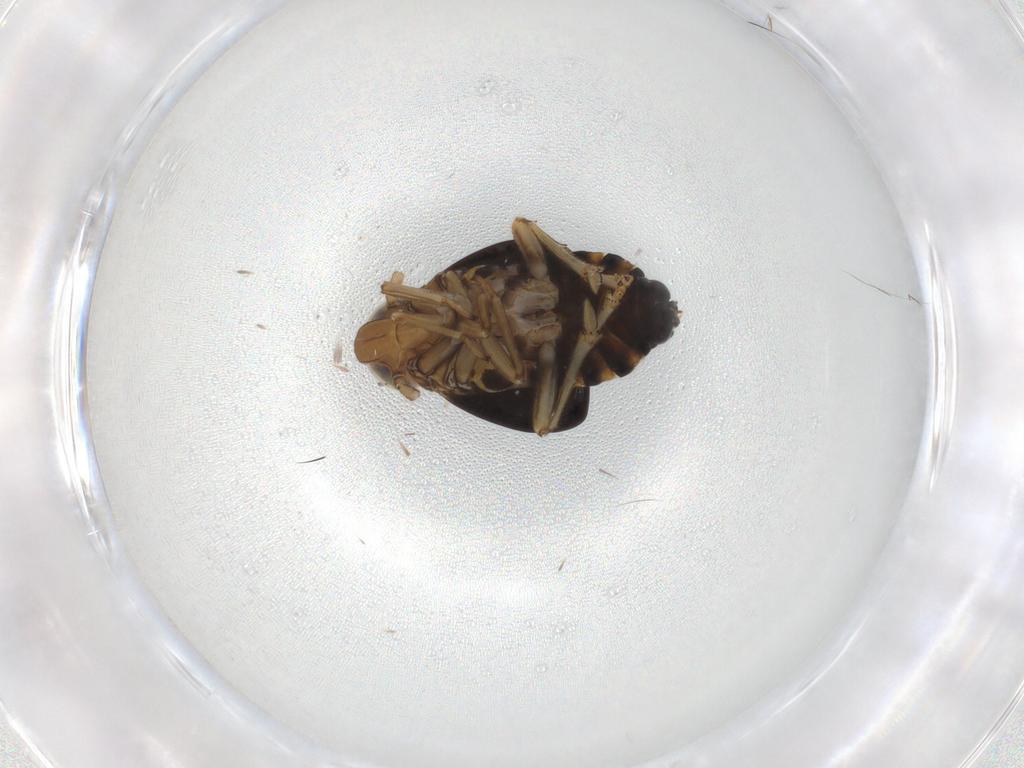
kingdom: Animalia
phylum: Arthropoda
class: Insecta
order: Hemiptera
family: Delphacidae
